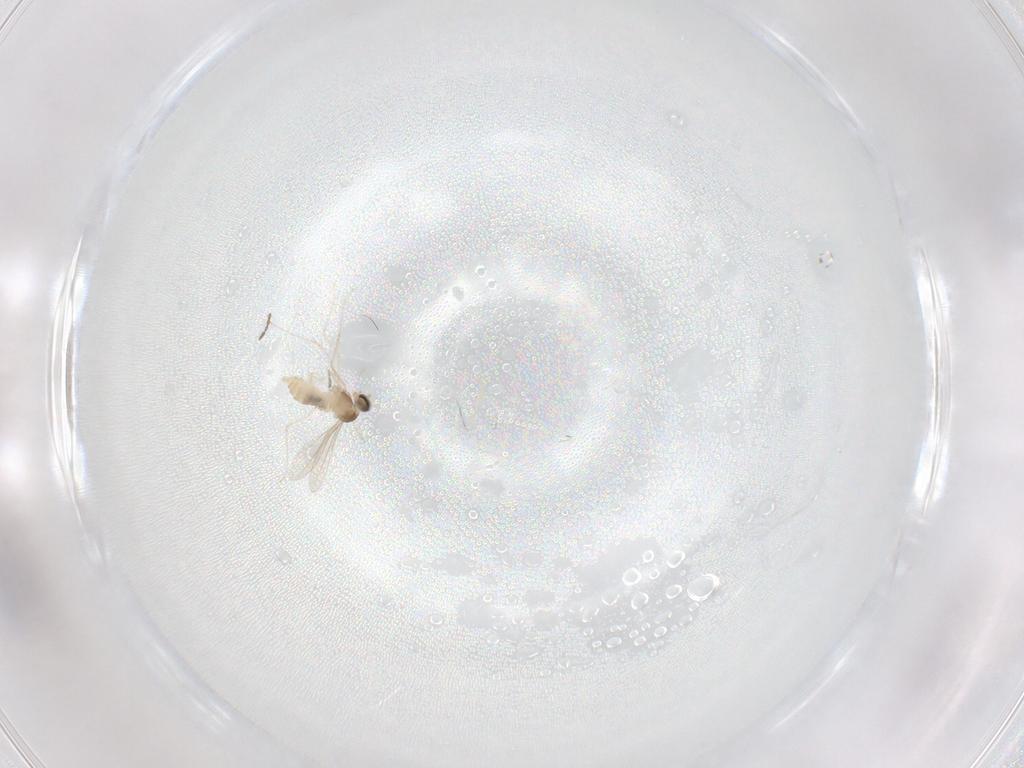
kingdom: Animalia
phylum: Arthropoda
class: Insecta
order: Diptera
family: Chironomidae
